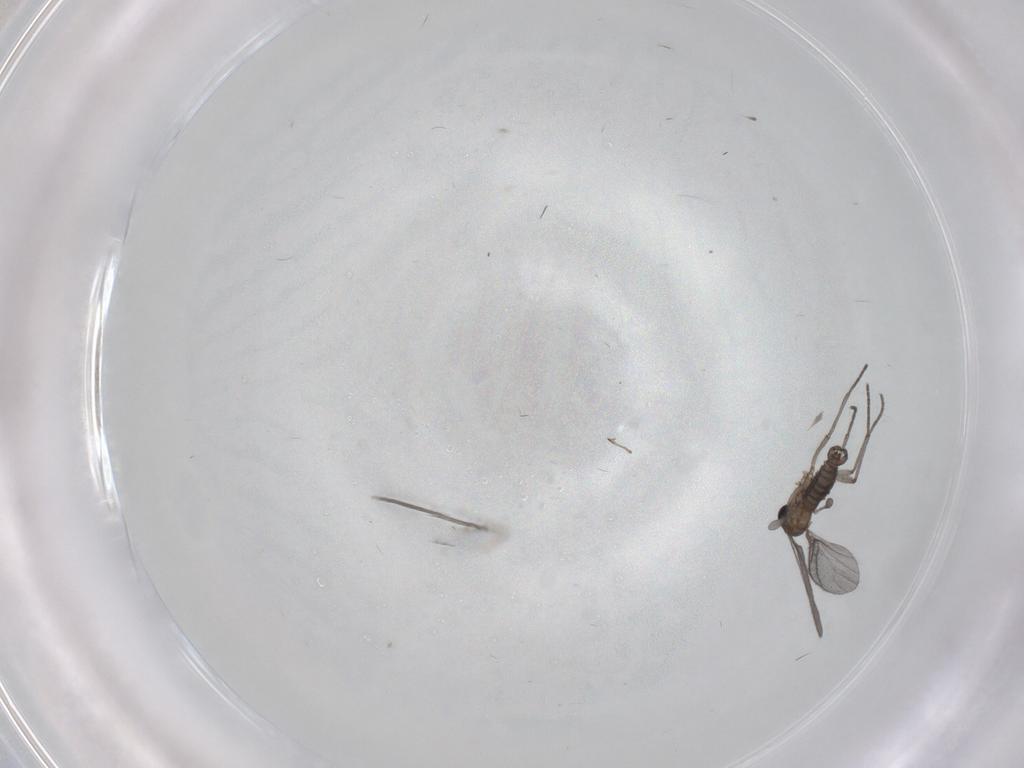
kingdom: Animalia
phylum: Arthropoda
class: Insecta
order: Diptera
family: Sciaridae
